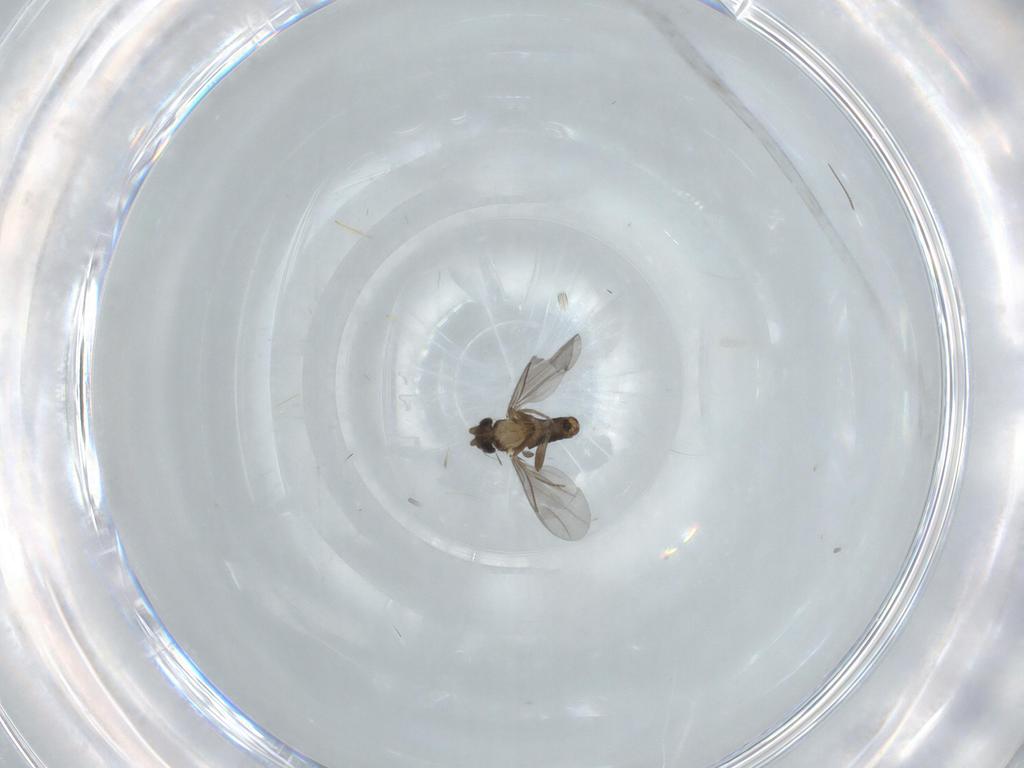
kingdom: Animalia
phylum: Arthropoda
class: Insecta
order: Diptera
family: Chironomidae
